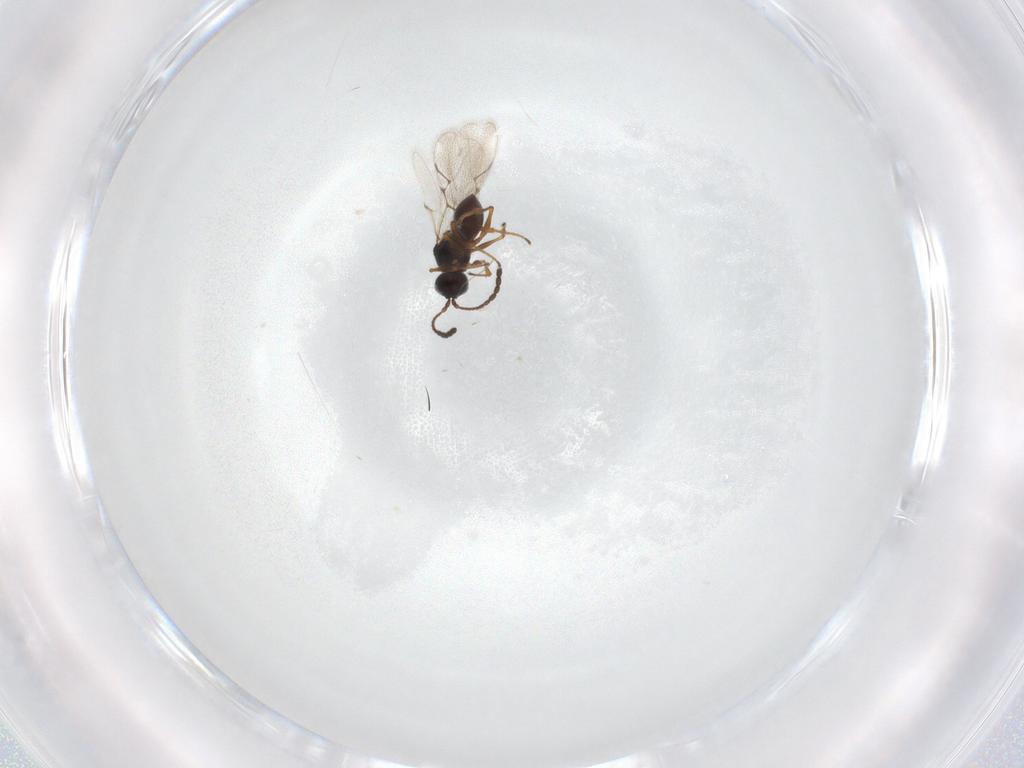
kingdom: Animalia
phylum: Arthropoda
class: Insecta
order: Hymenoptera
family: Figitidae
